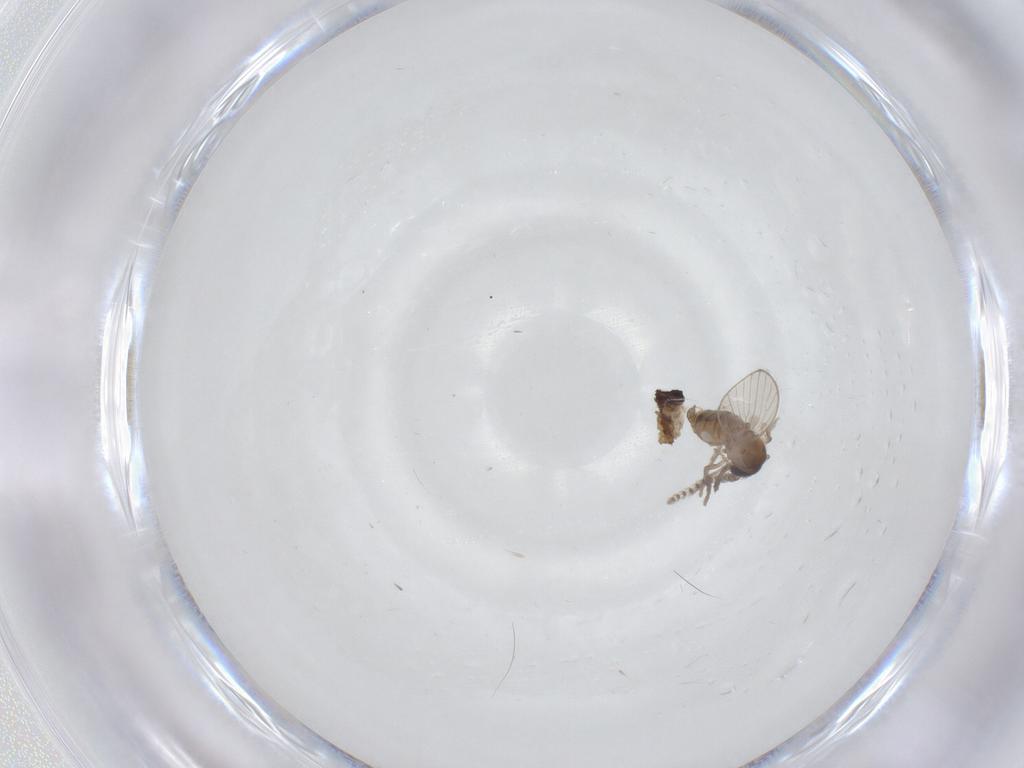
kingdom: Animalia
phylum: Arthropoda
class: Insecta
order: Diptera
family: Syrphidae
